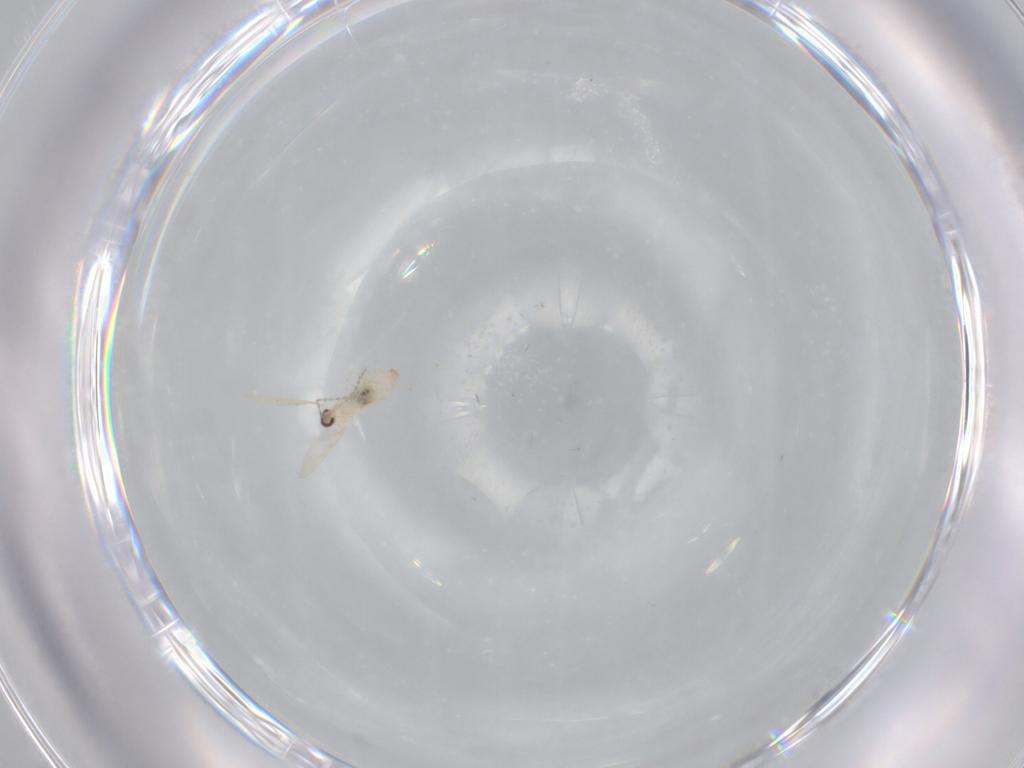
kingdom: Animalia
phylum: Arthropoda
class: Insecta
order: Diptera
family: Cecidomyiidae
